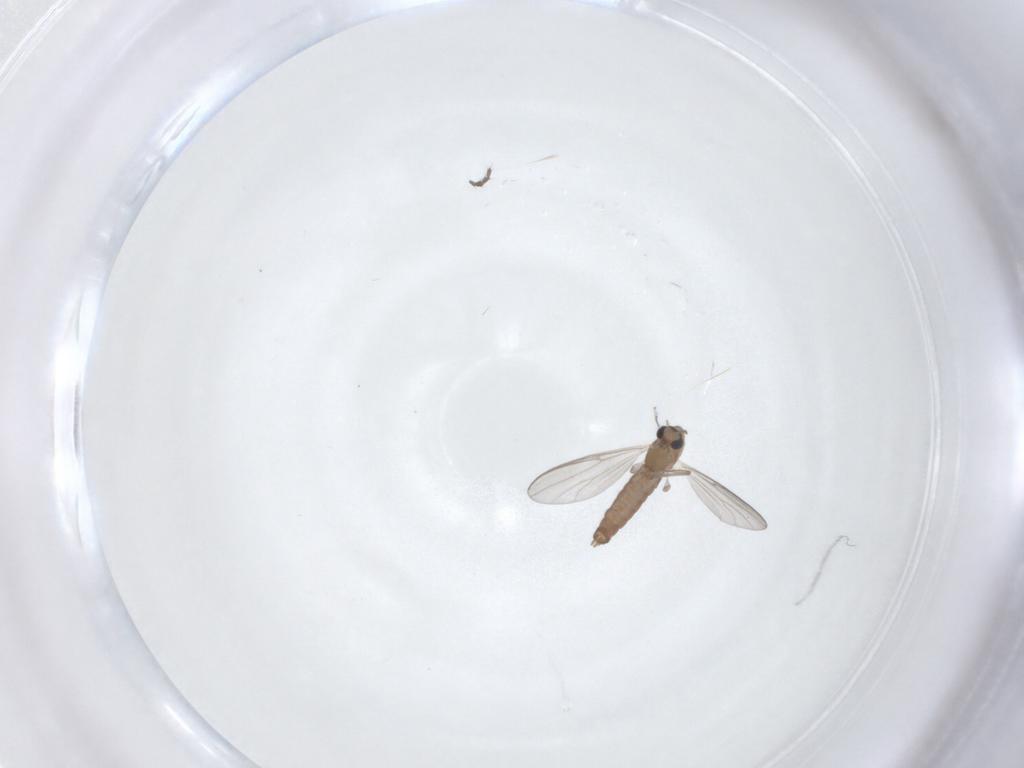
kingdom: Animalia
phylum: Arthropoda
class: Insecta
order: Diptera
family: Chironomidae
